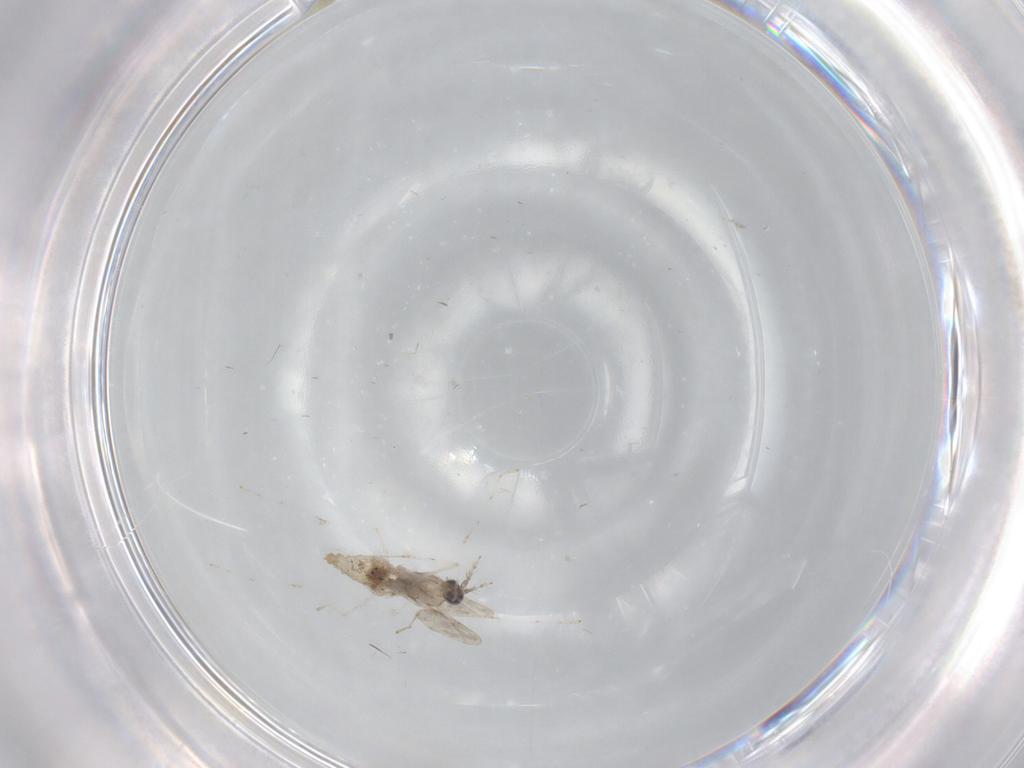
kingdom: Animalia
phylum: Arthropoda
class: Insecta
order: Diptera
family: Cecidomyiidae
